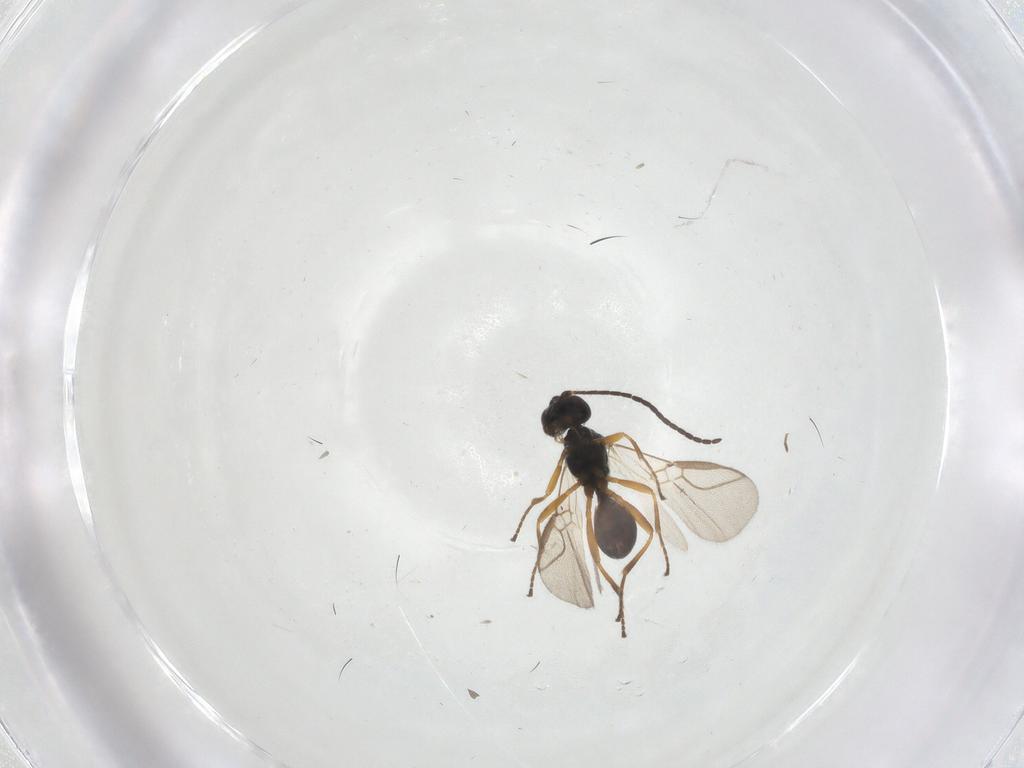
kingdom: Animalia
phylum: Arthropoda
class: Insecta
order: Hymenoptera
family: Braconidae
